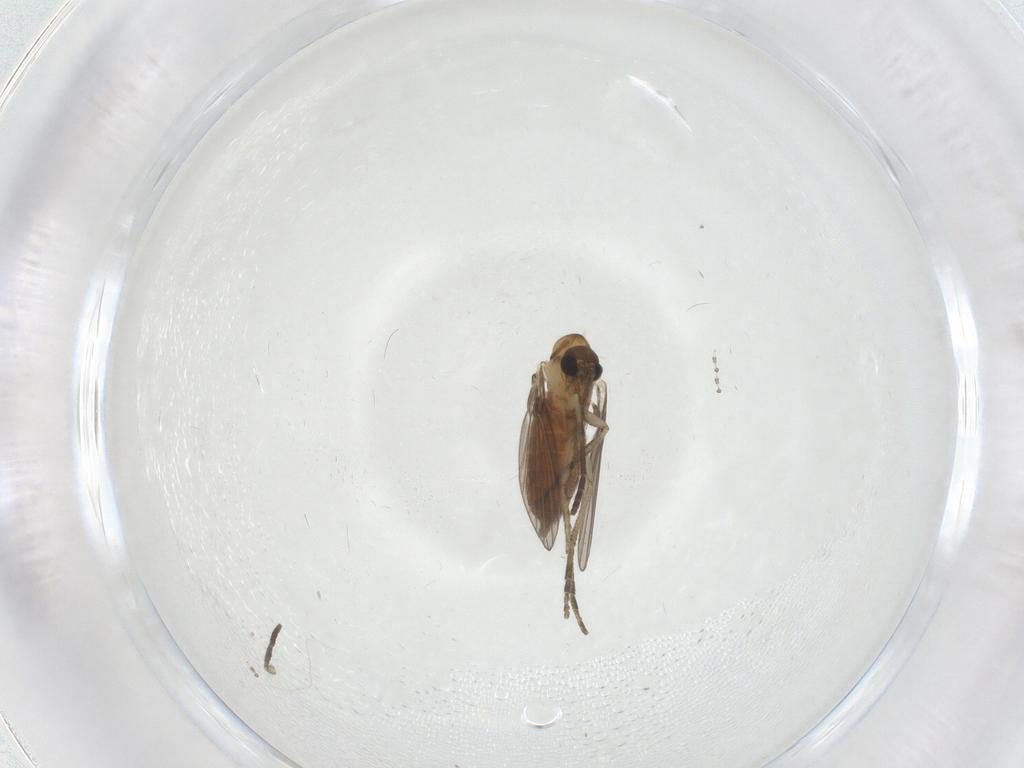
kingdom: Animalia
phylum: Arthropoda
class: Insecta
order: Diptera
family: Cecidomyiidae
